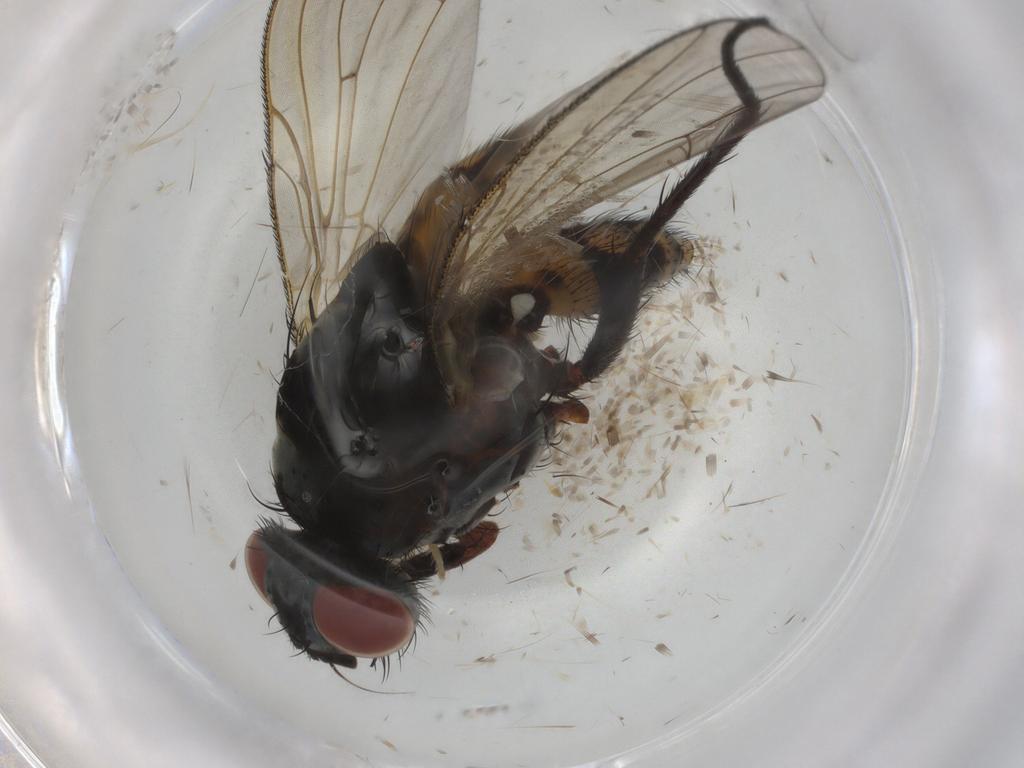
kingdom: Animalia
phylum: Arthropoda
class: Insecta
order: Diptera
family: Anthomyiidae
